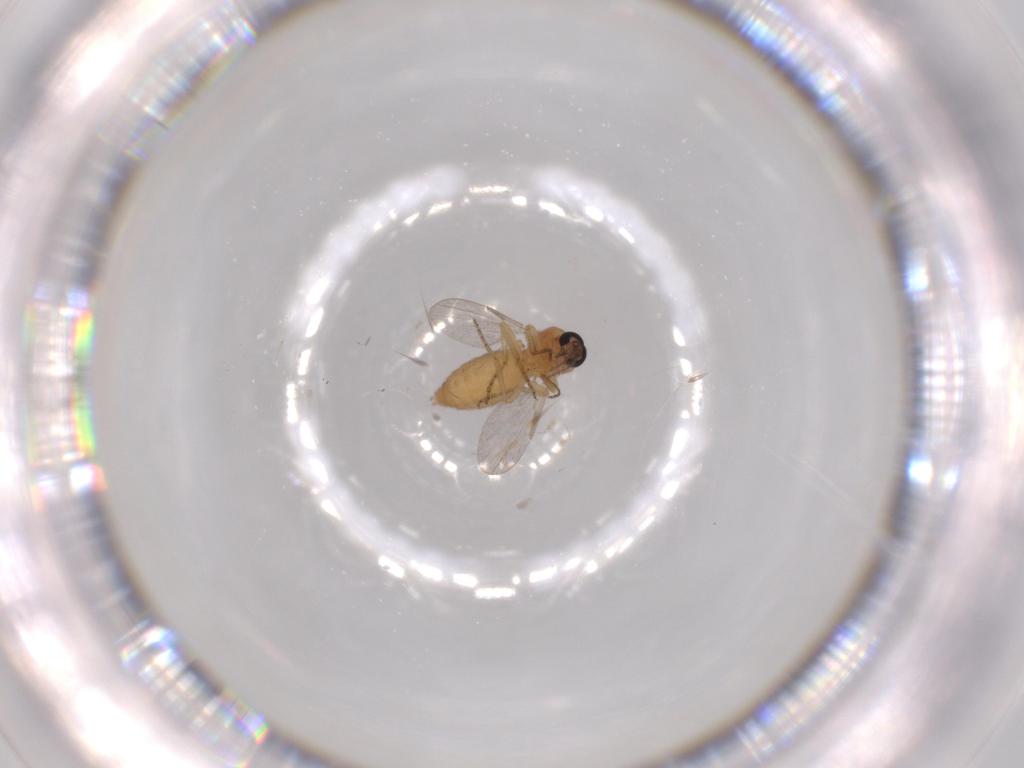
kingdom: Animalia
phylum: Arthropoda
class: Insecta
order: Diptera
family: Ceratopogonidae
